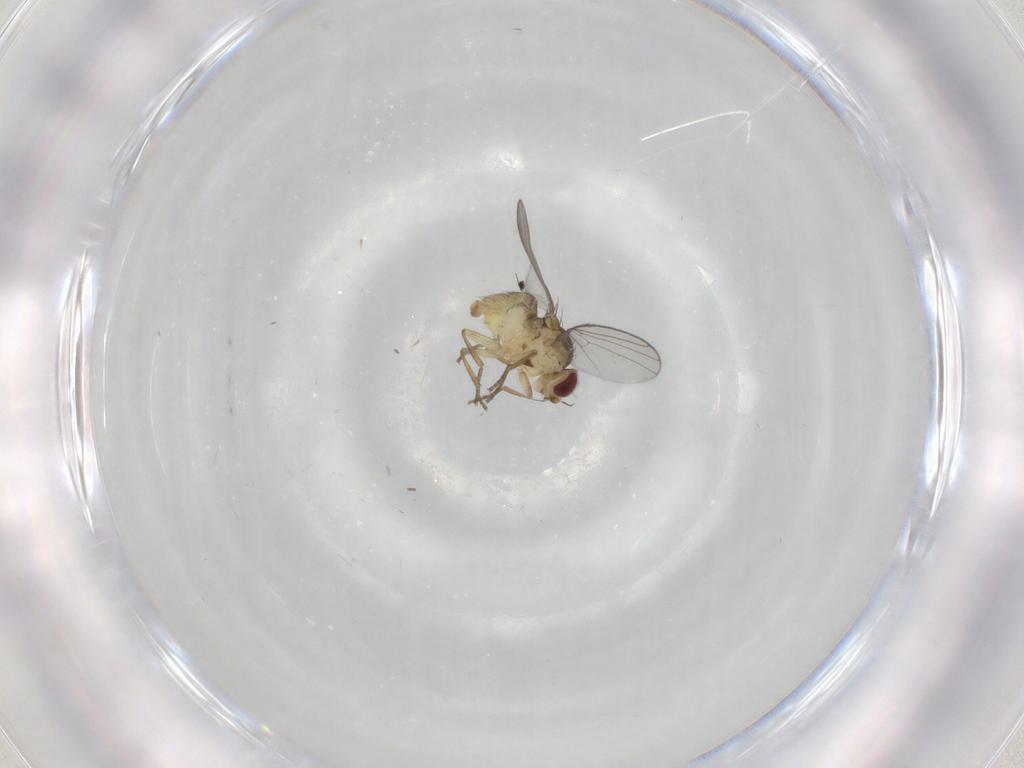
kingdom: Animalia
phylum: Arthropoda
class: Insecta
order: Diptera
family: Agromyzidae
